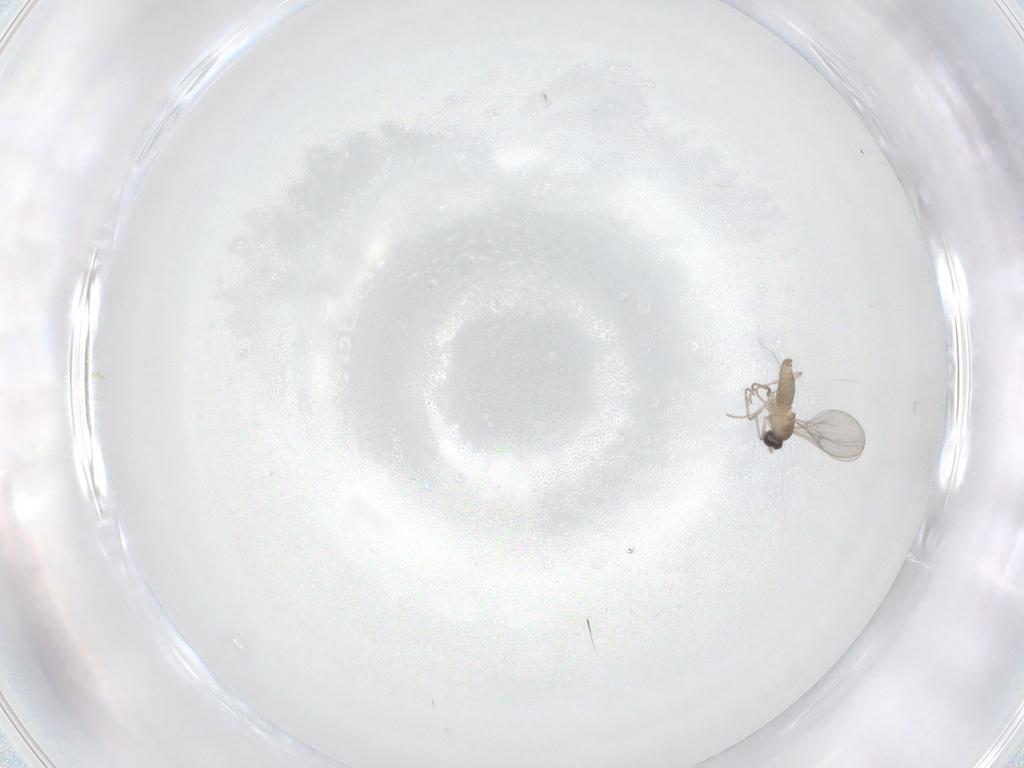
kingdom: Animalia
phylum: Arthropoda
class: Insecta
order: Diptera
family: Cecidomyiidae
